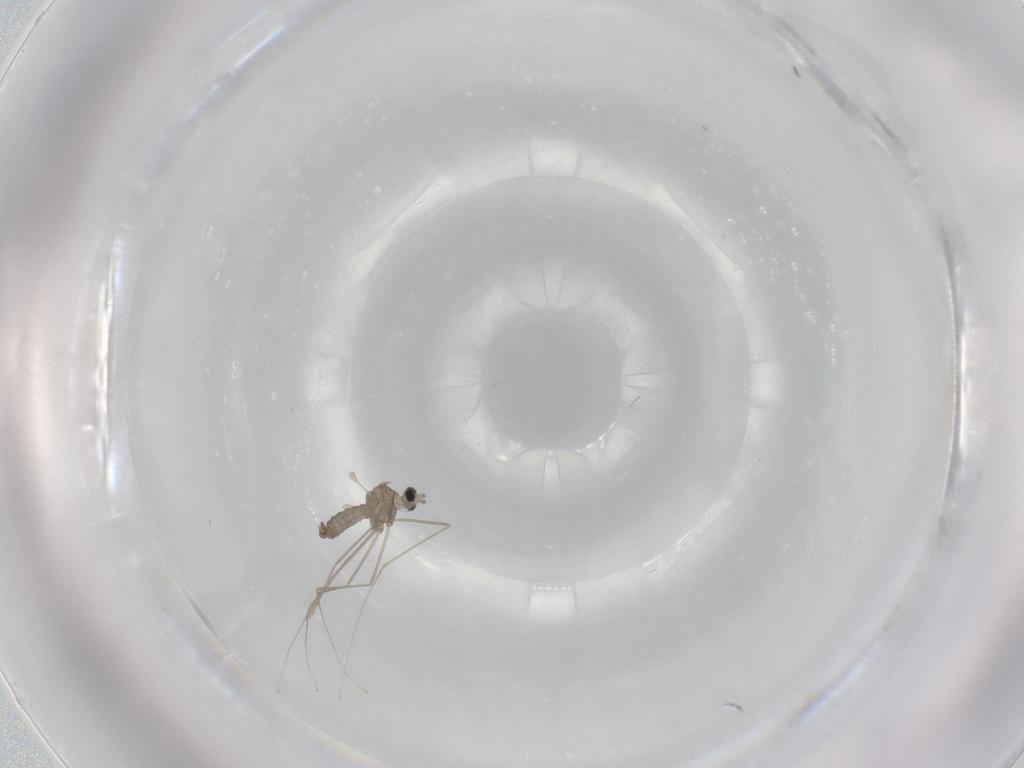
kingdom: Animalia
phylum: Arthropoda
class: Insecta
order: Diptera
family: Cecidomyiidae
